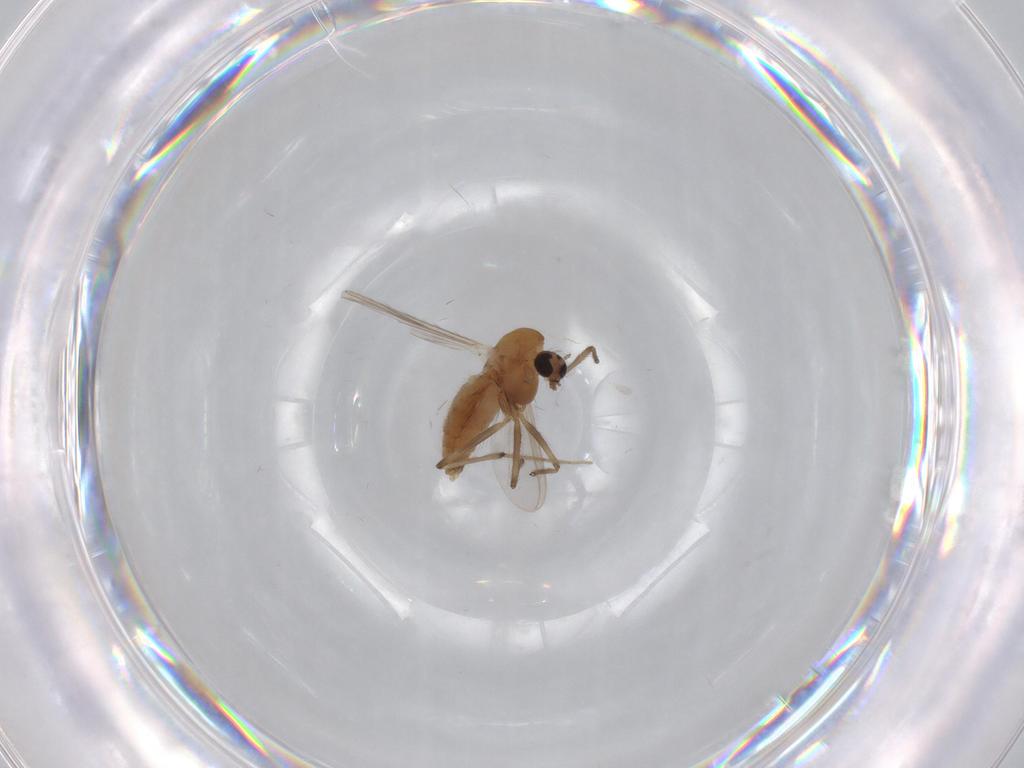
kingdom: Animalia
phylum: Arthropoda
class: Insecta
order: Diptera
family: Chironomidae
